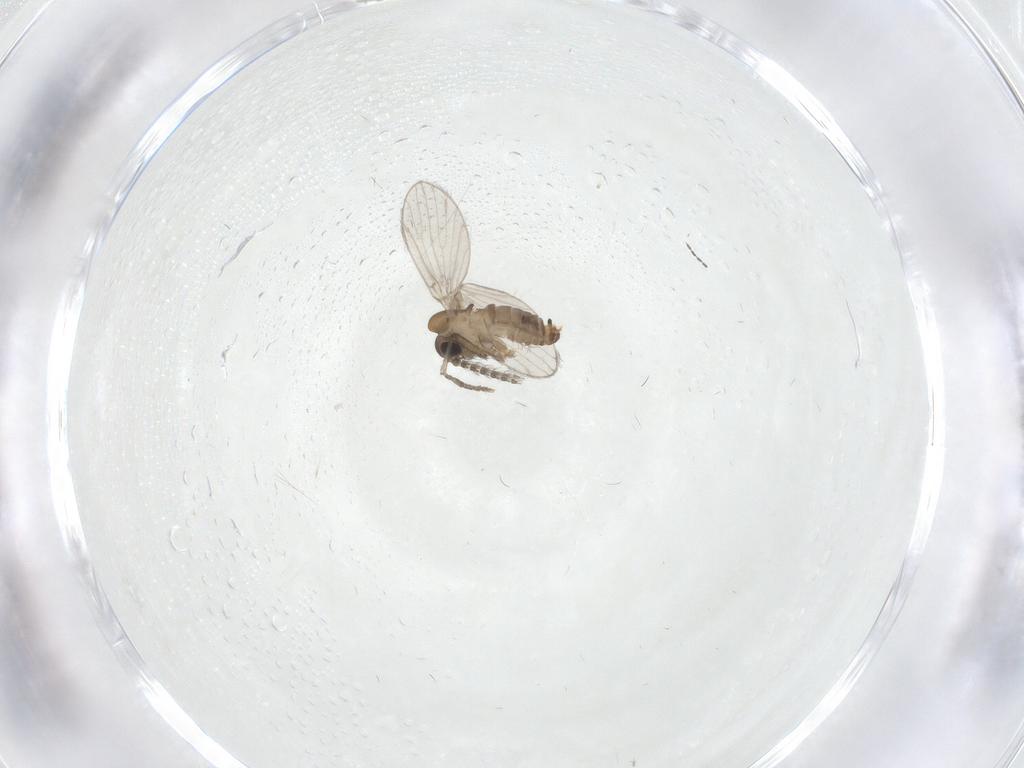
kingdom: Animalia
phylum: Arthropoda
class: Insecta
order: Diptera
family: Psychodidae
